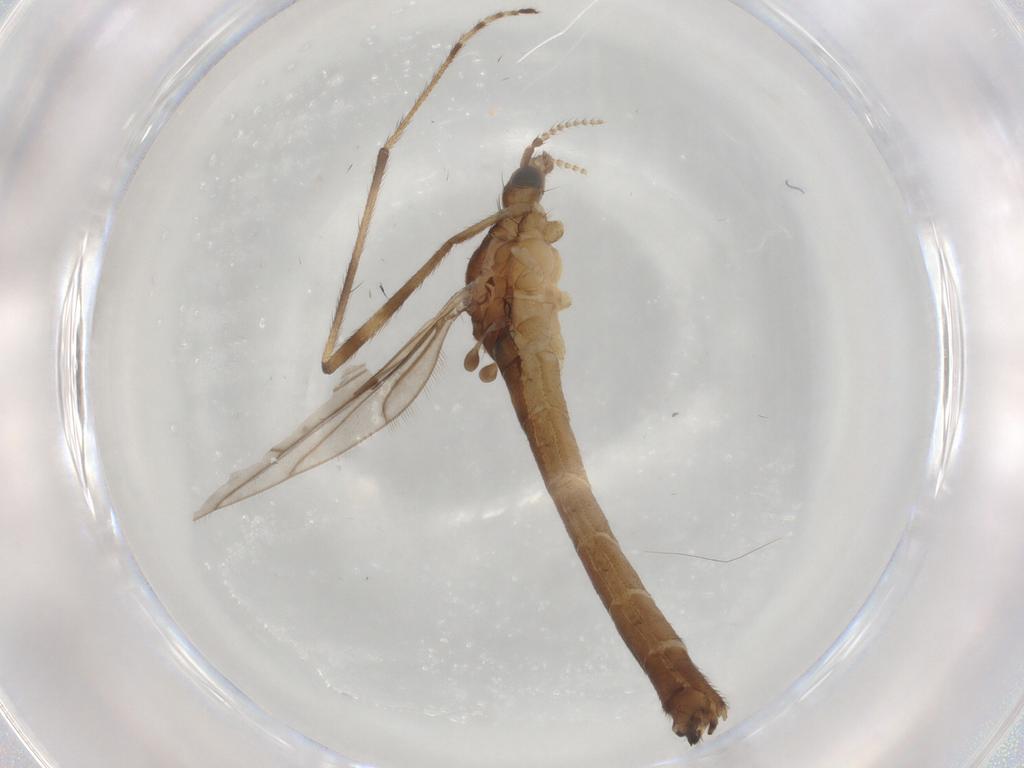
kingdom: Animalia
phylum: Arthropoda
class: Insecta
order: Diptera
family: Limoniidae
